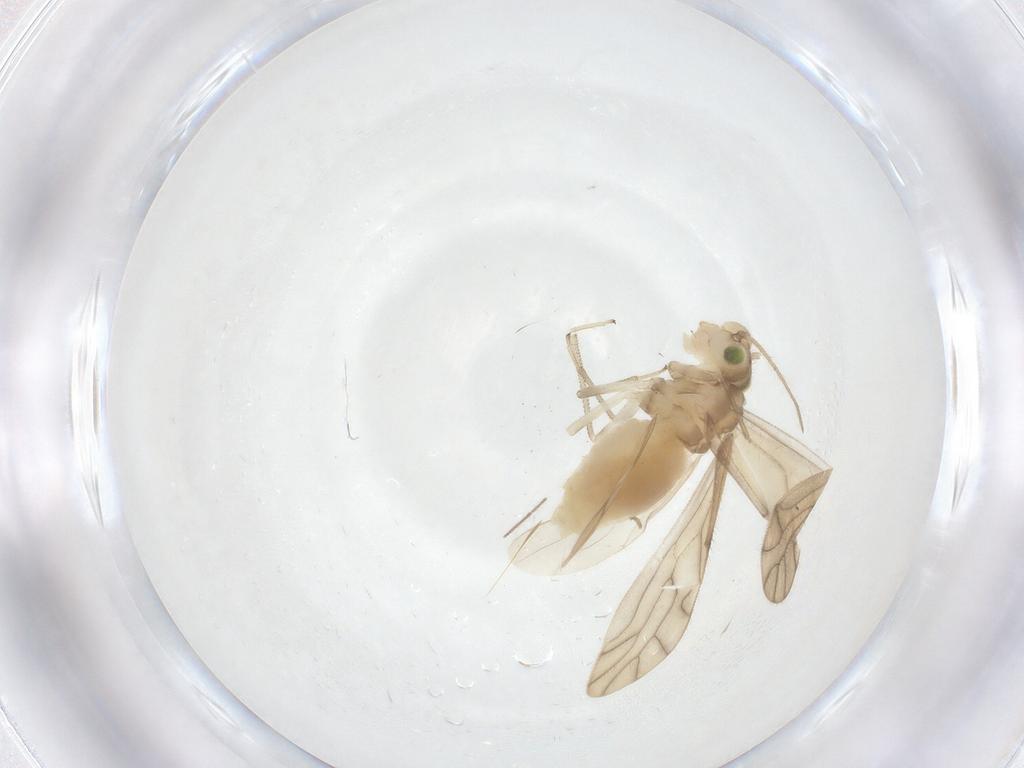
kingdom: Animalia
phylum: Arthropoda
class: Insecta
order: Psocodea
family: Caeciliusidae
